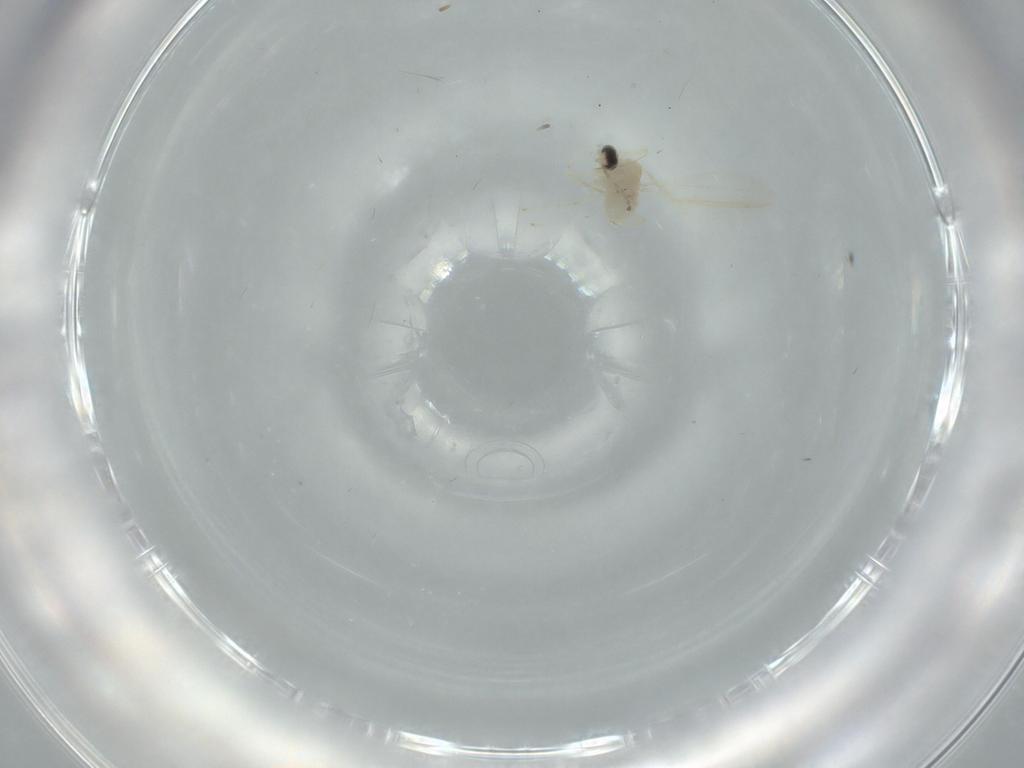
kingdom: Animalia
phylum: Arthropoda
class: Insecta
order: Diptera
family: Cecidomyiidae
